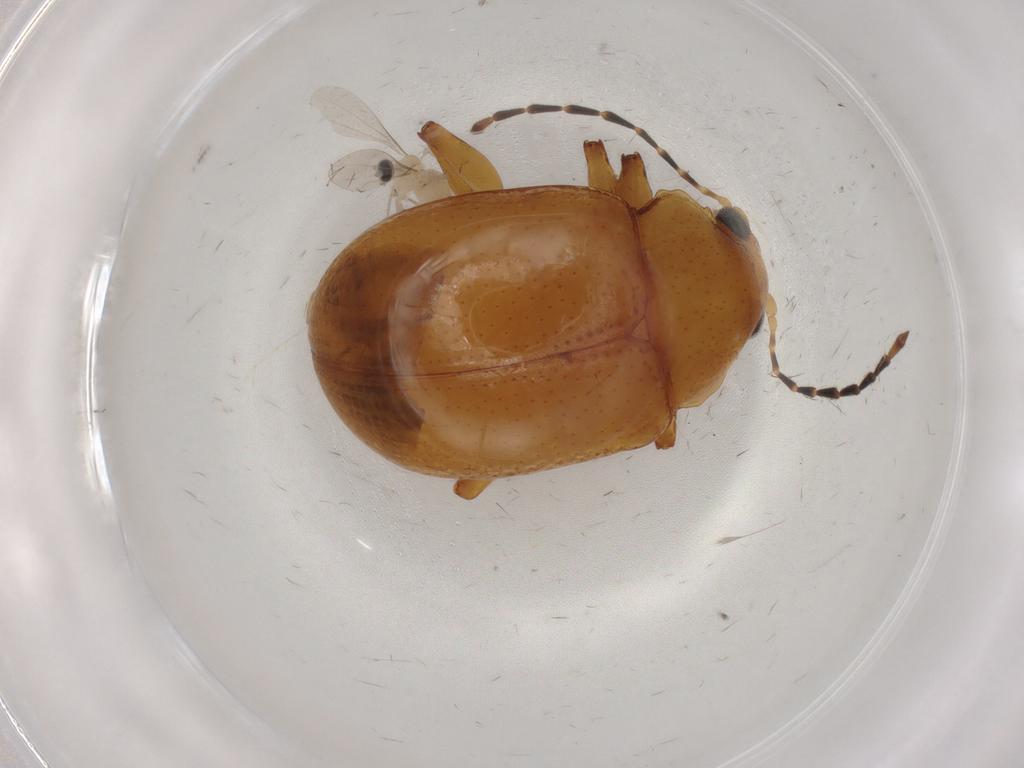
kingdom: Animalia
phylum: Arthropoda
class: Insecta
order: Coleoptera
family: Chrysomelidae
